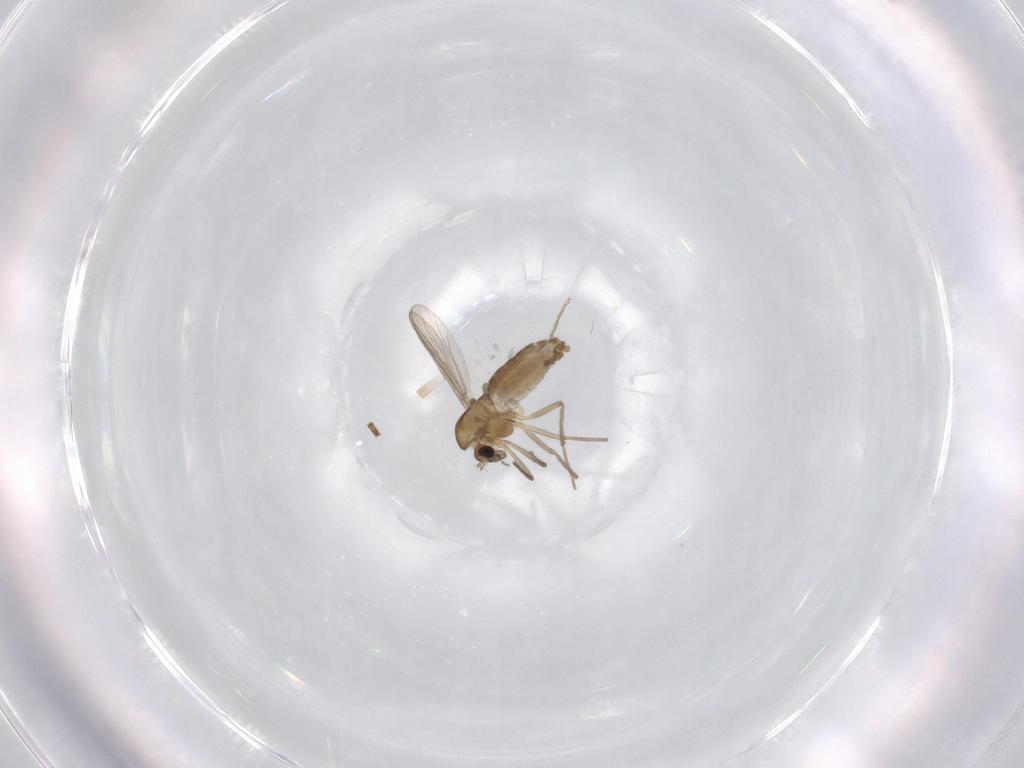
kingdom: Animalia
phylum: Arthropoda
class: Insecta
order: Diptera
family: Chironomidae
